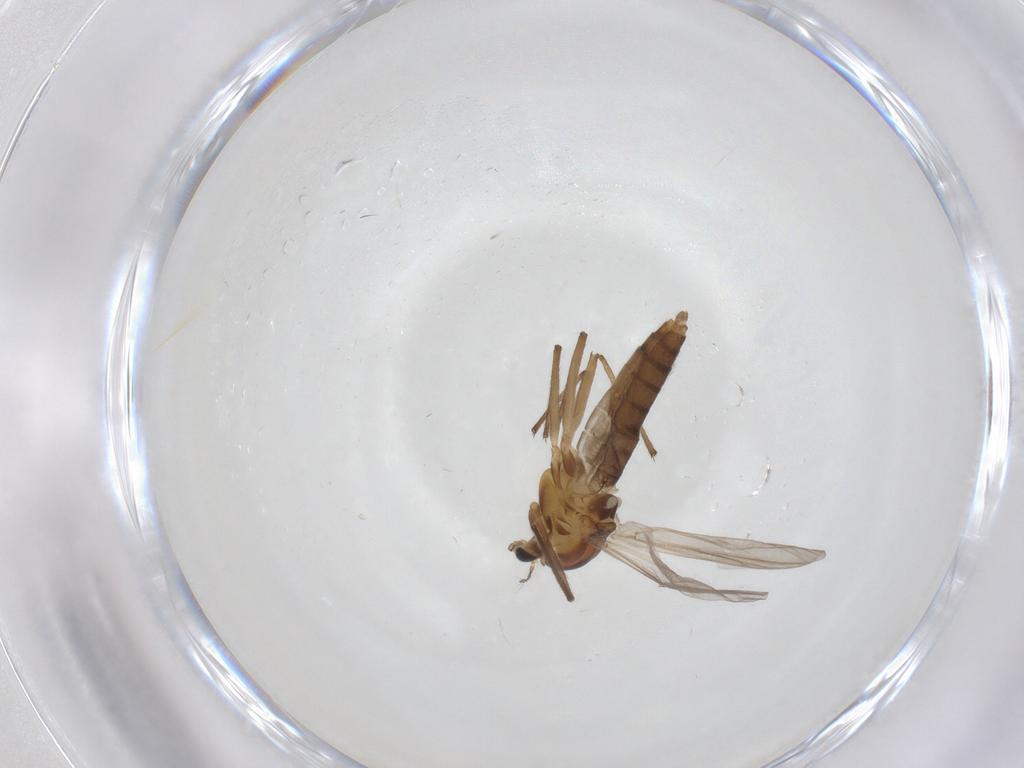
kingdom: Animalia
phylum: Arthropoda
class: Insecta
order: Diptera
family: Chironomidae
